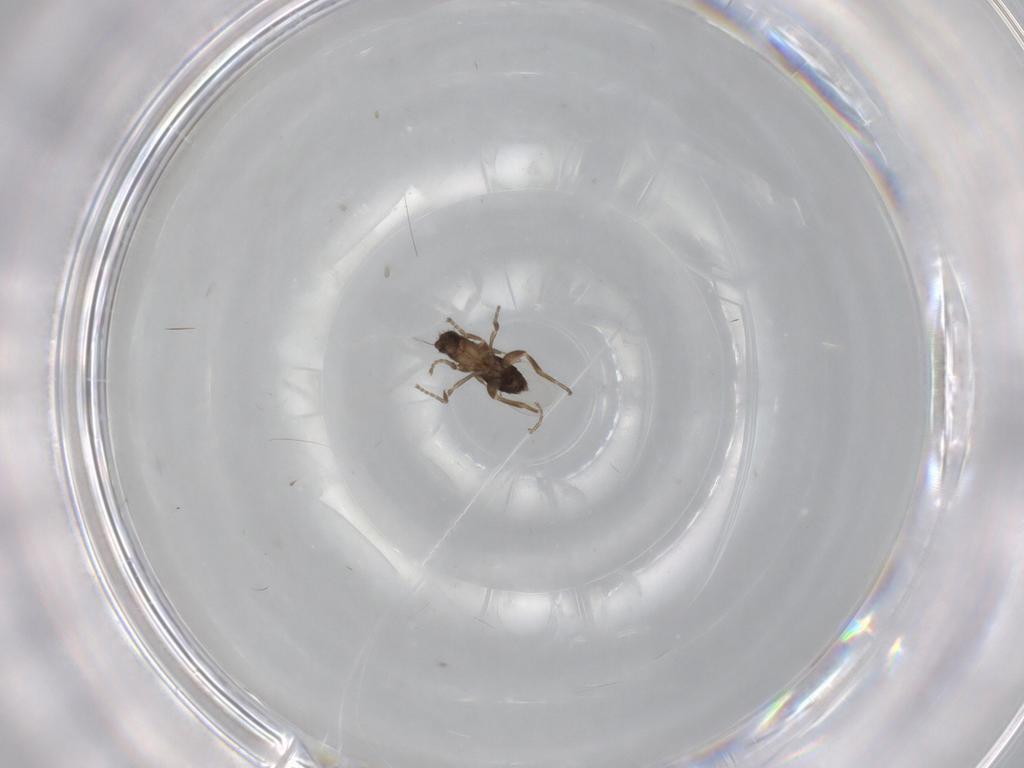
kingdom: Animalia
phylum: Arthropoda
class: Insecta
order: Diptera
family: Phoridae
